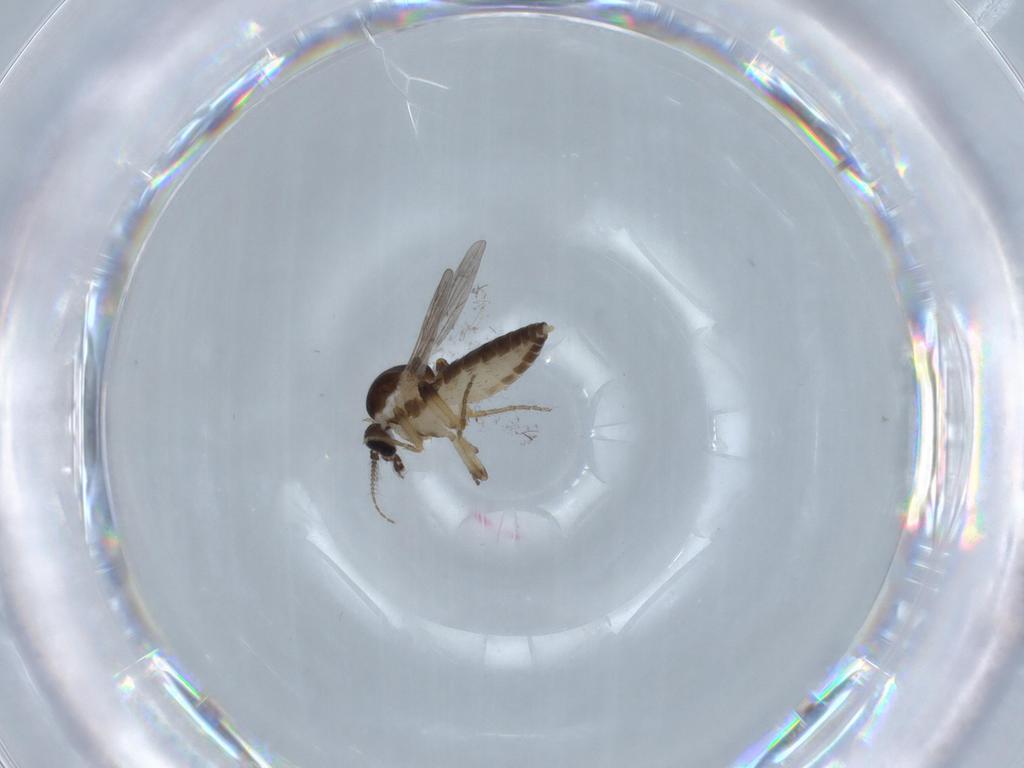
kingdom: Animalia
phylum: Arthropoda
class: Insecta
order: Diptera
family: Ceratopogonidae
